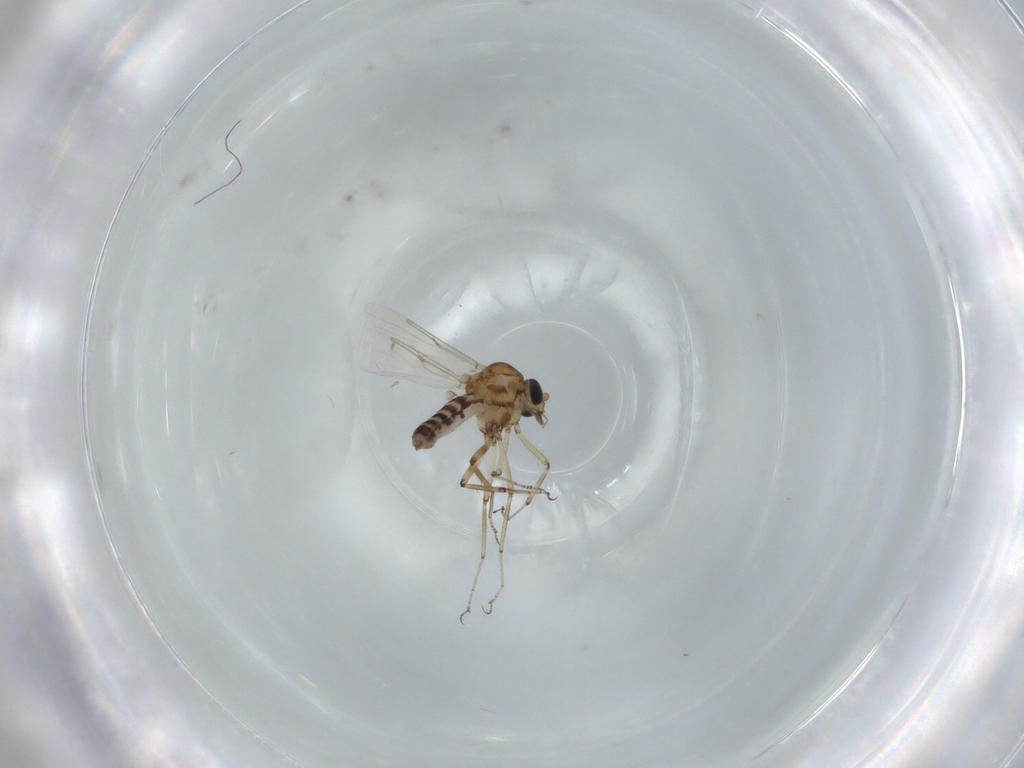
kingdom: Animalia
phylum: Arthropoda
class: Insecta
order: Diptera
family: Ceratopogonidae
